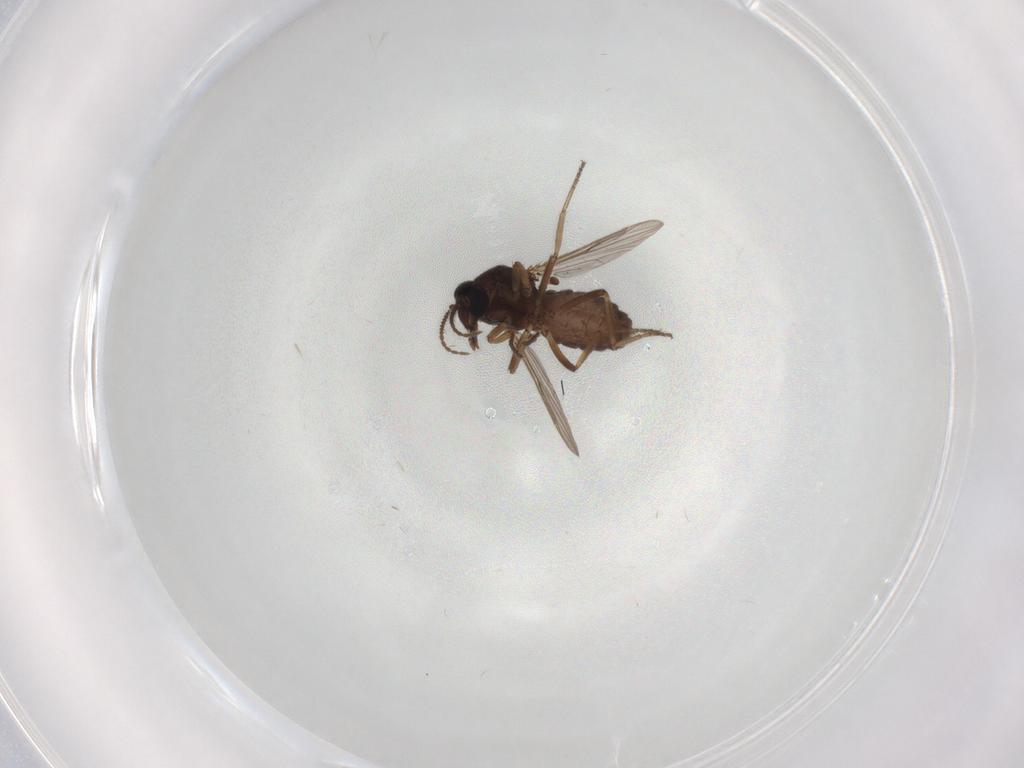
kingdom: Animalia
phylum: Arthropoda
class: Insecta
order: Diptera
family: Ceratopogonidae
